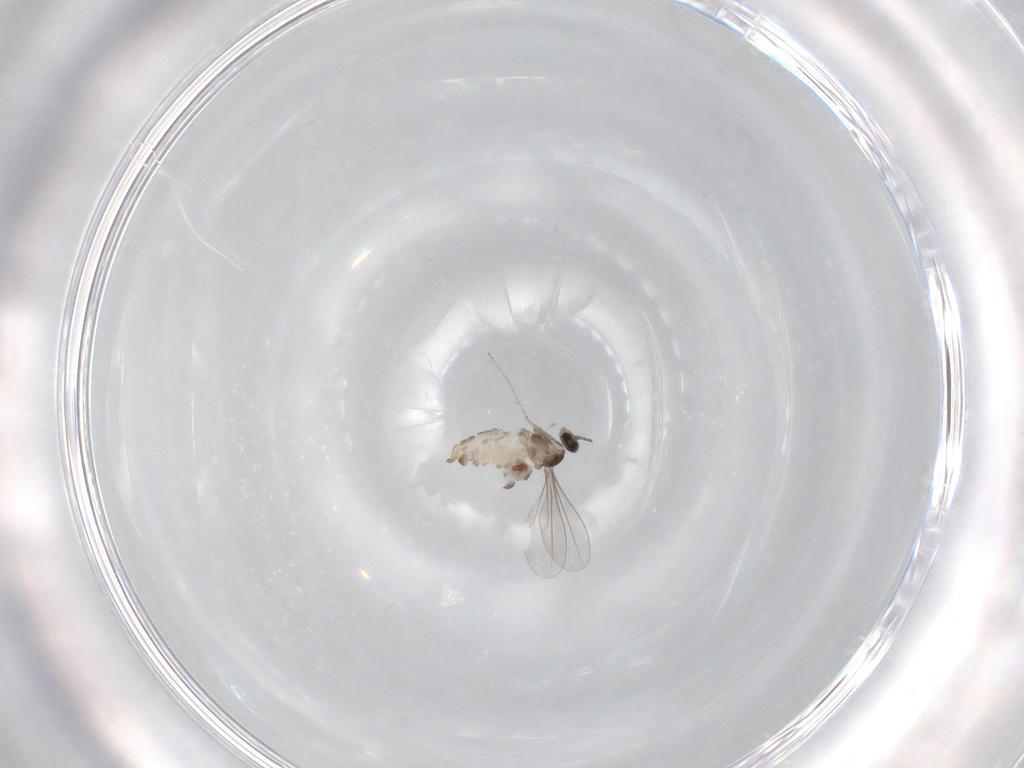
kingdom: Animalia
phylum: Arthropoda
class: Insecta
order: Diptera
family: Cecidomyiidae
